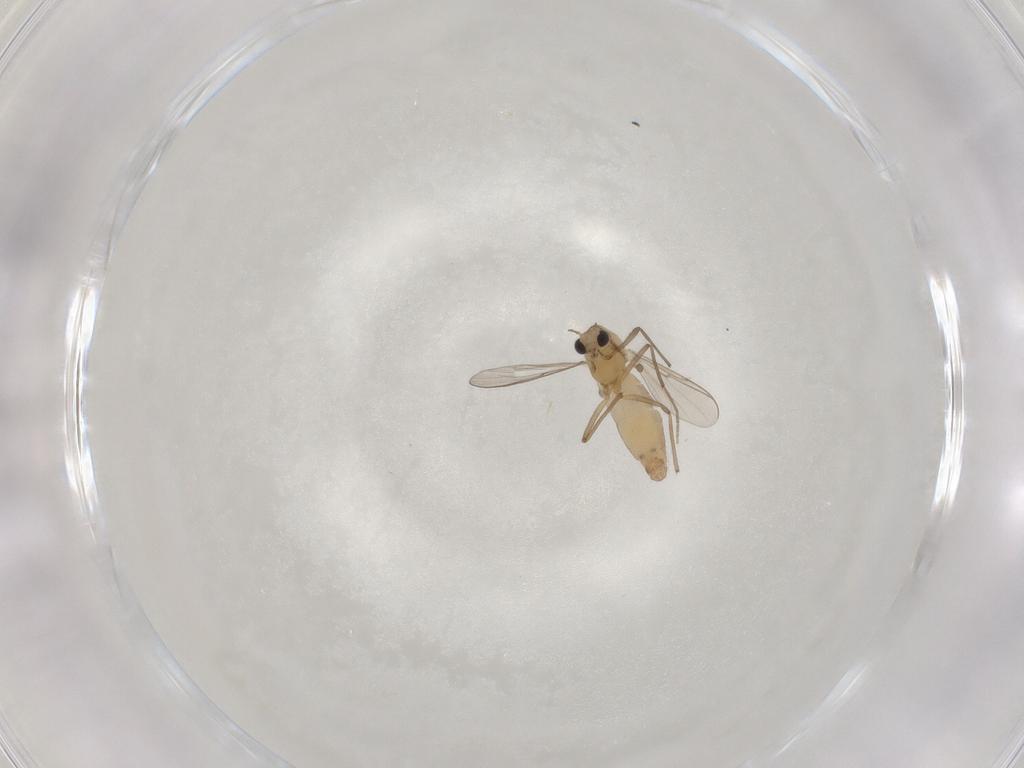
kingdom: Animalia
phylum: Arthropoda
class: Insecta
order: Diptera
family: Chironomidae
